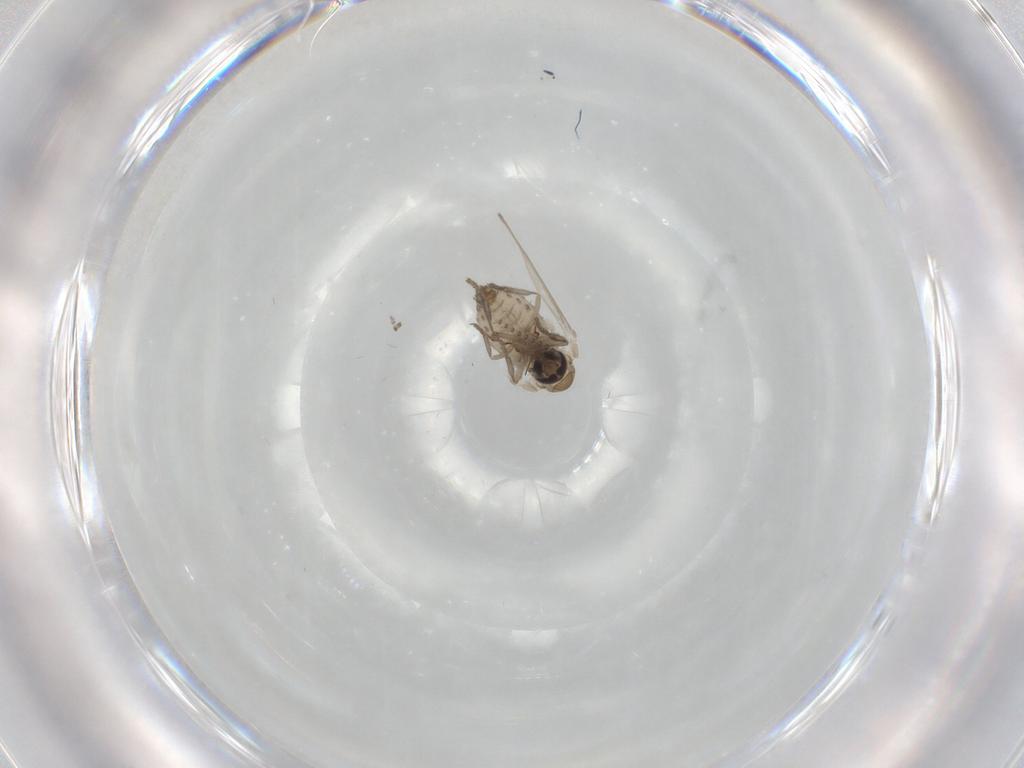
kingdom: Animalia
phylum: Arthropoda
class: Insecta
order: Diptera
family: Psychodidae
